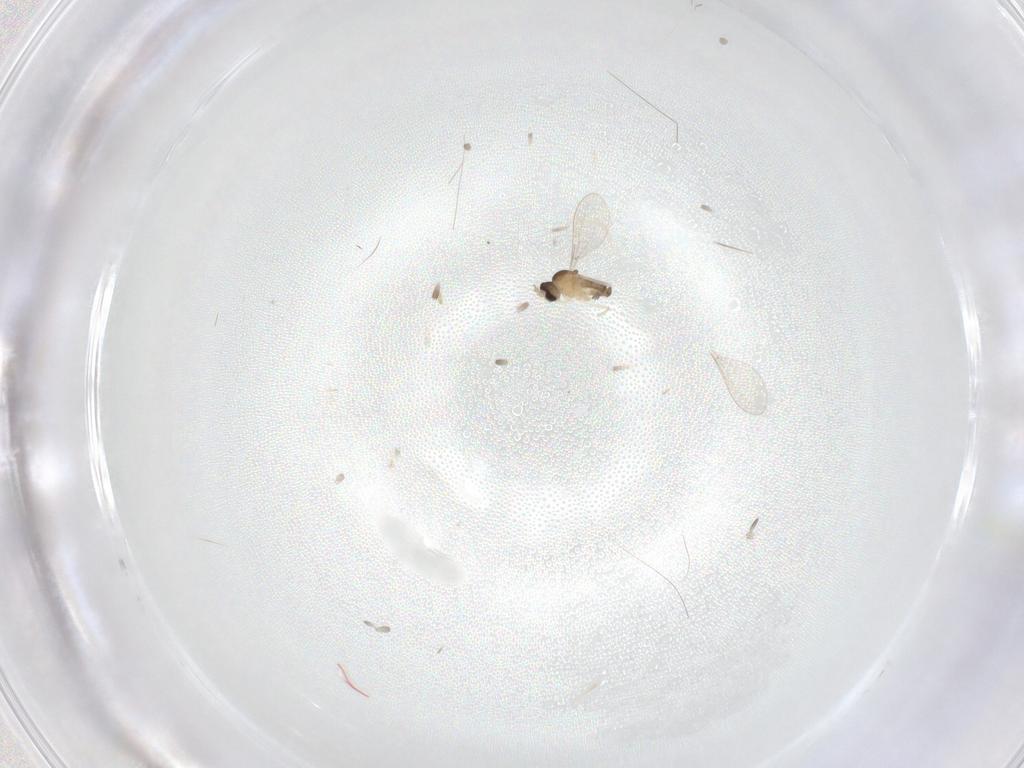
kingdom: Animalia
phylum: Arthropoda
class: Insecta
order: Diptera
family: Cecidomyiidae
